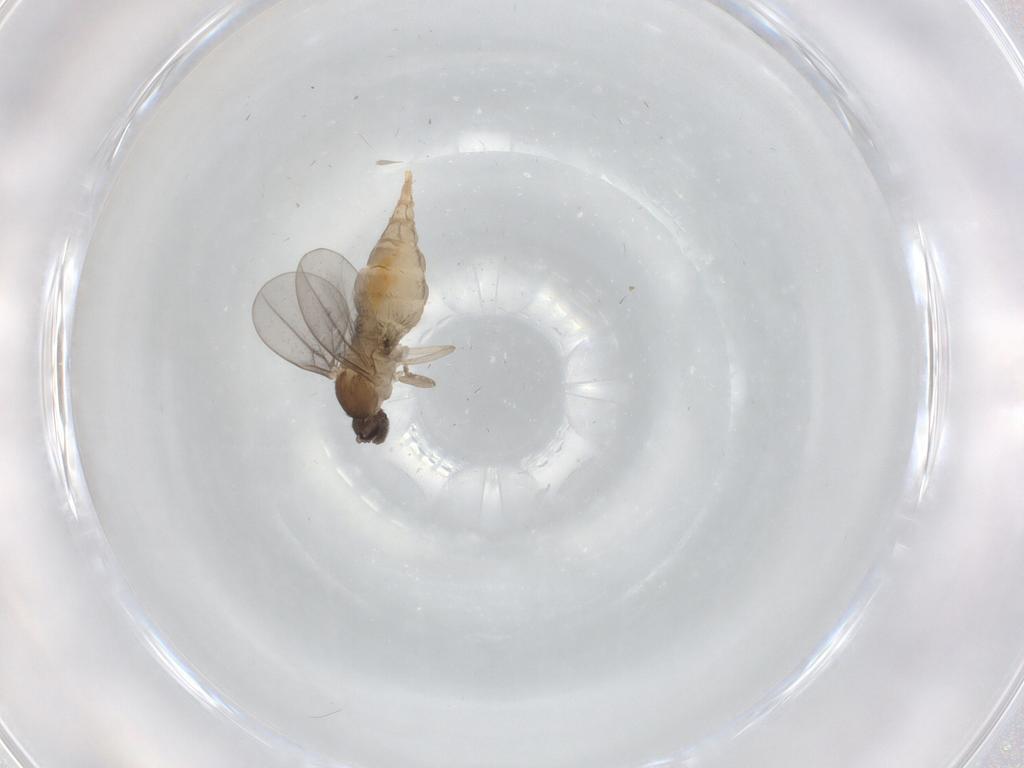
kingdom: Animalia
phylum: Arthropoda
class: Insecta
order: Diptera
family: Cecidomyiidae
